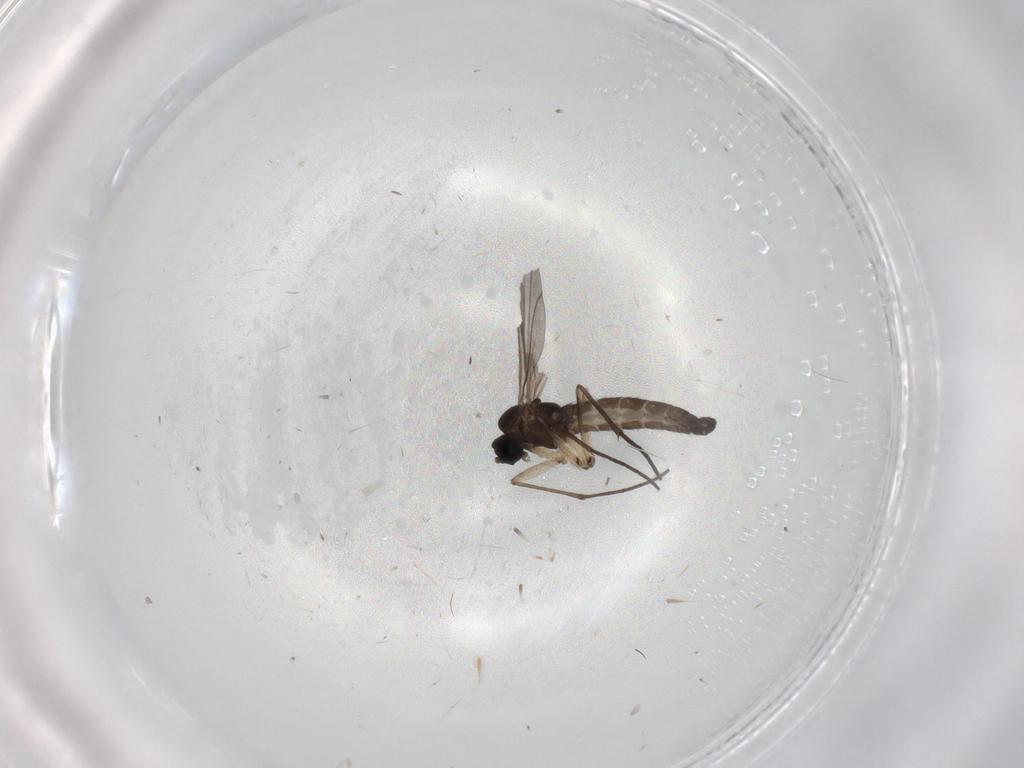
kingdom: Animalia
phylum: Arthropoda
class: Insecta
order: Diptera
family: Sciaridae
